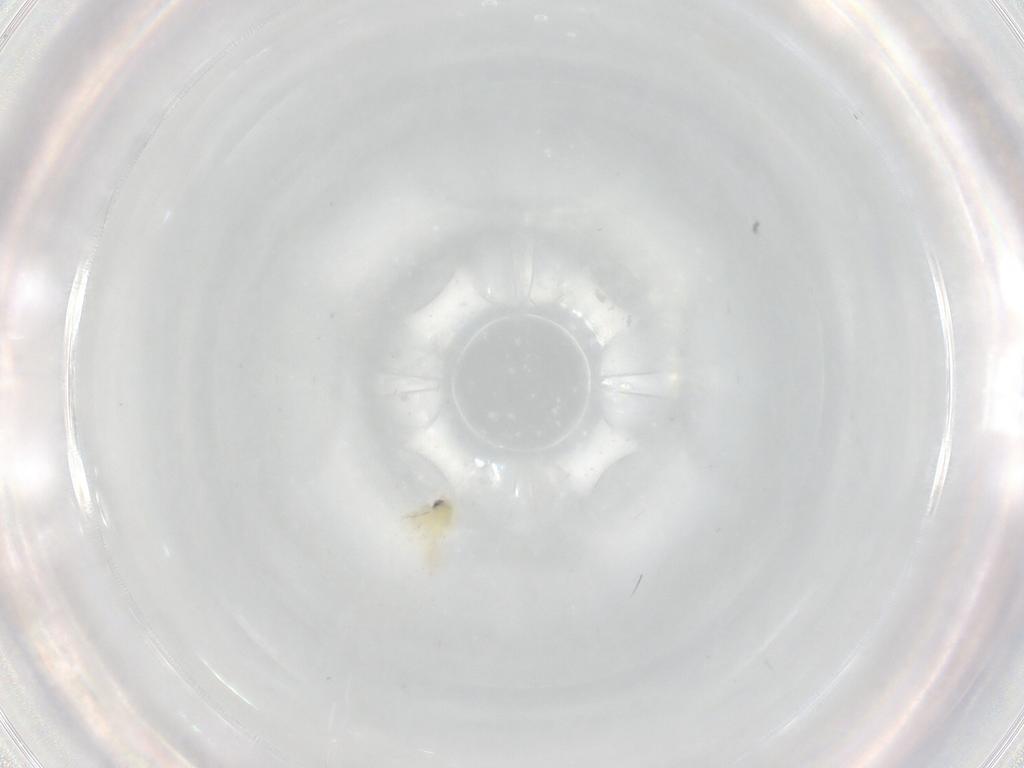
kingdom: Animalia
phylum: Arthropoda
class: Insecta
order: Hemiptera
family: Aleyrodidae
